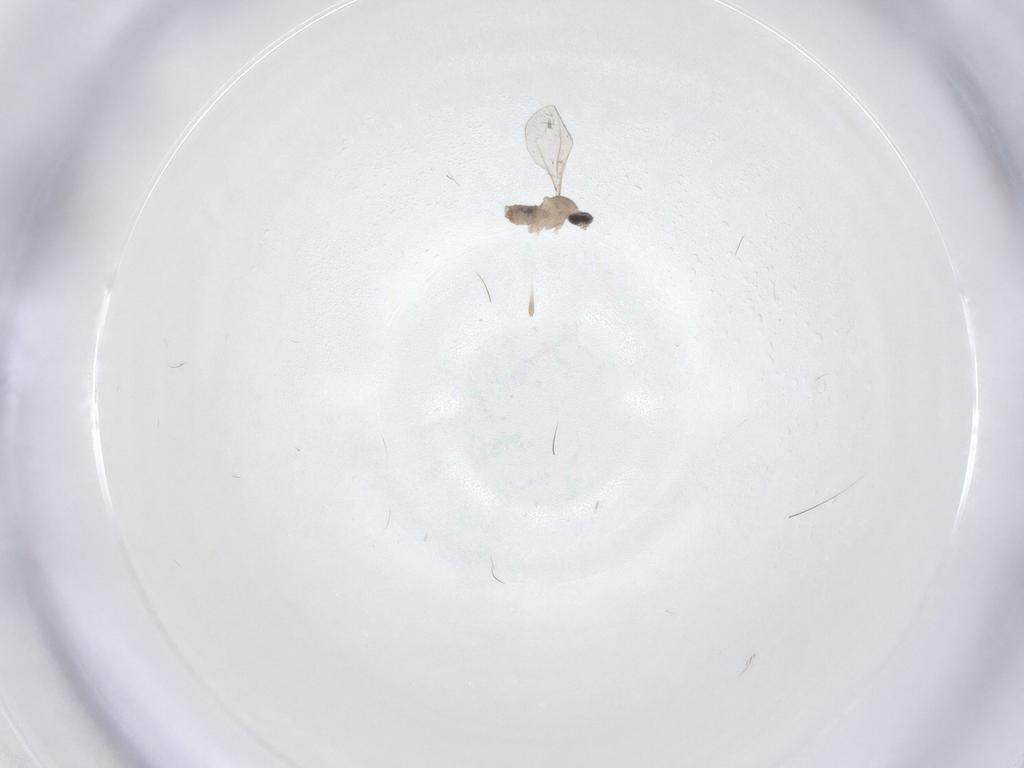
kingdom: Animalia
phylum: Arthropoda
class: Insecta
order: Diptera
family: Cecidomyiidae
